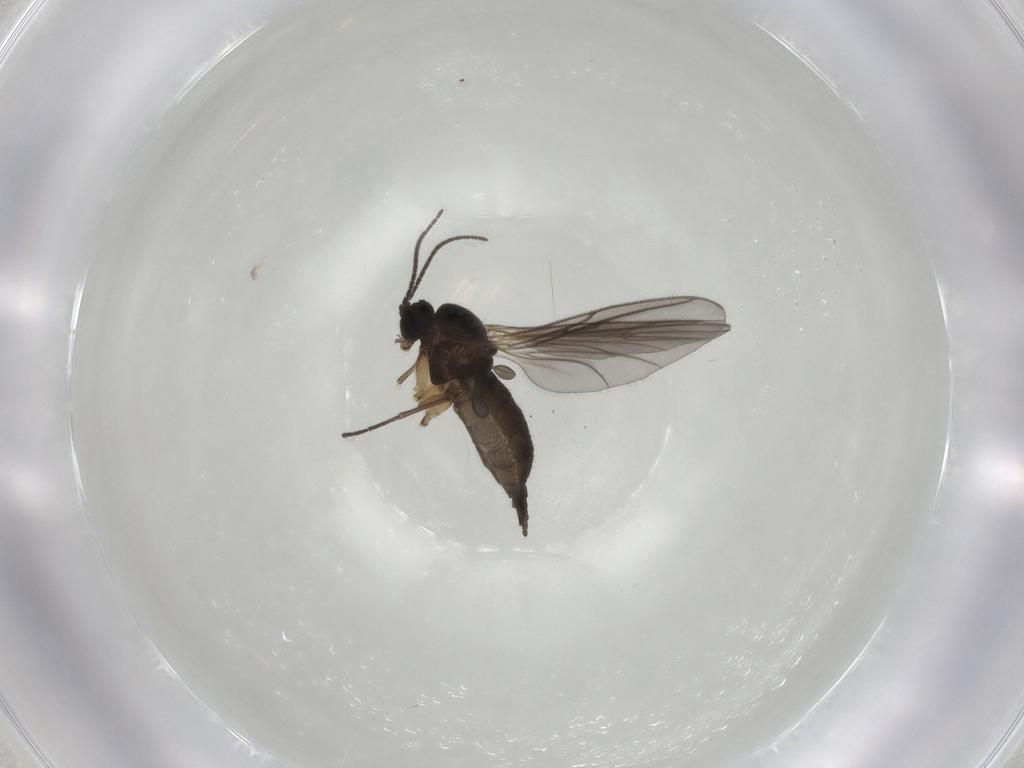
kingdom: Animalia
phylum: Arthropoda
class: Insecta
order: Diptera
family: Sciaridae
